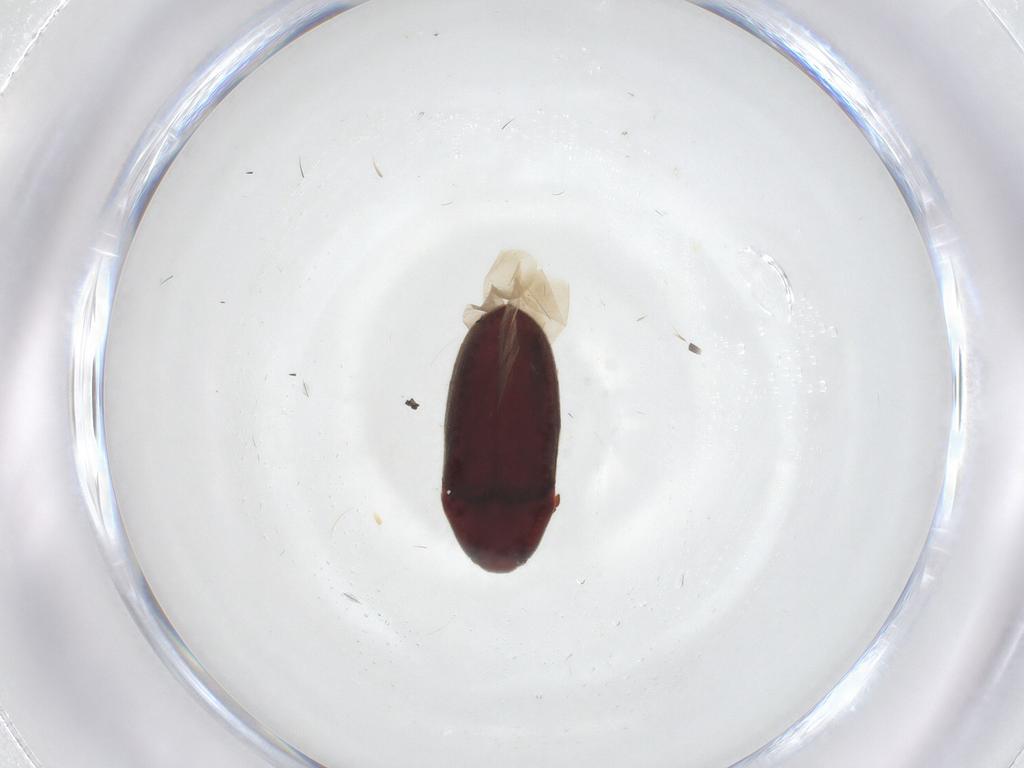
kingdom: Animalia
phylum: Arthropoda
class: Insecta
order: Coleoptera
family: Throscidae
